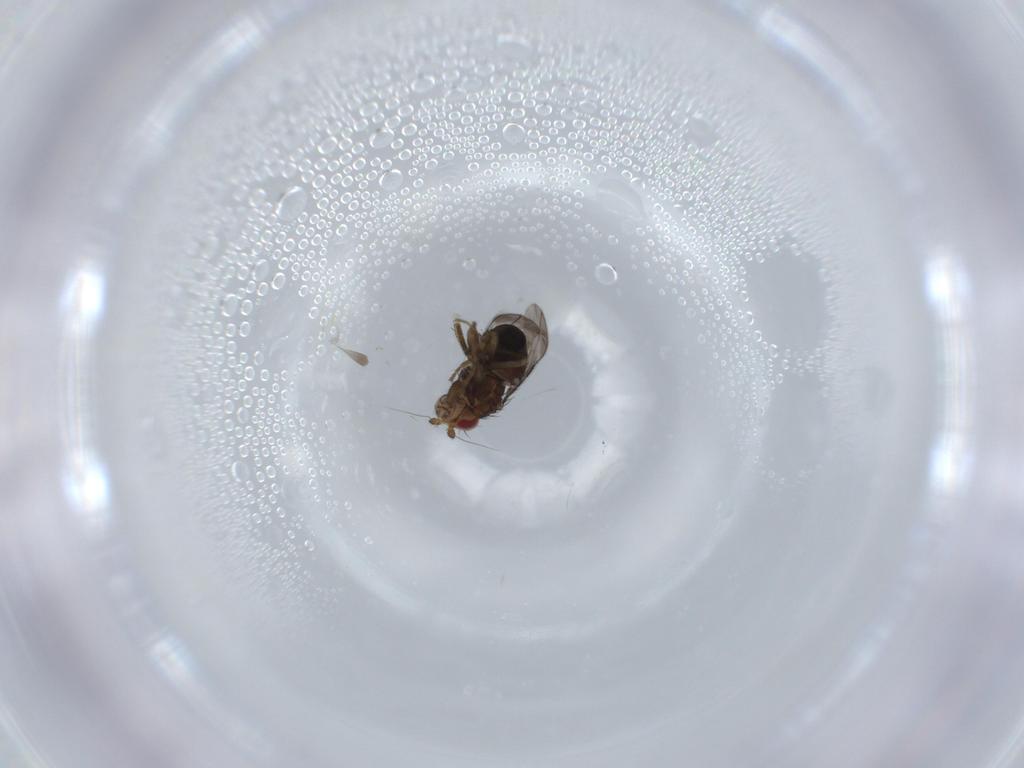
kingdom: Animalia
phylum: Arthropoda
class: Insecta
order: Diptera
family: Sphaeroceridae
